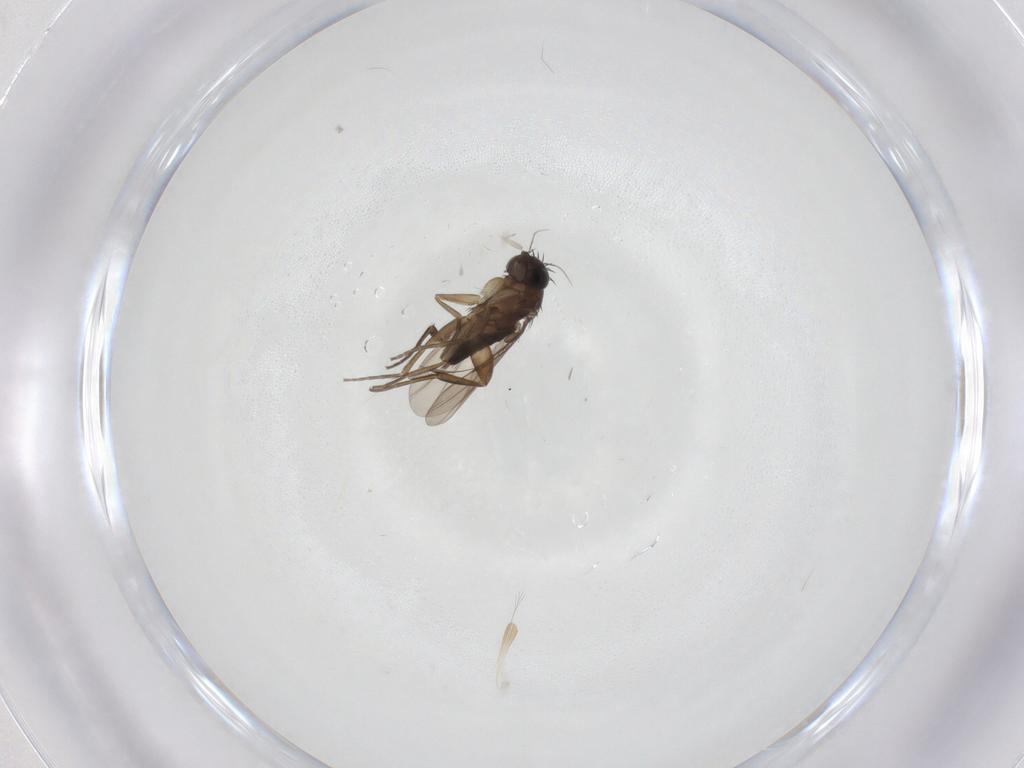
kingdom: Animalia
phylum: Arthropoda
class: Insecta
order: Diptera
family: Phoridae
